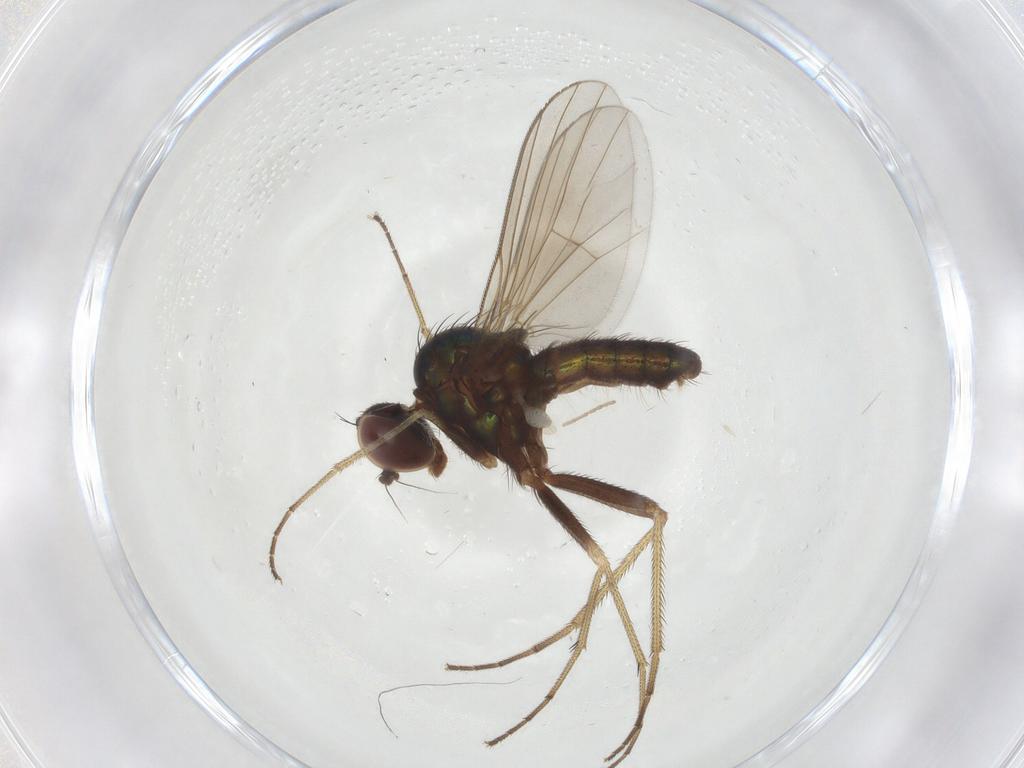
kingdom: Animalia
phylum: Arthropoda
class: Insecta
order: Diptera
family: Dolichopodidae
